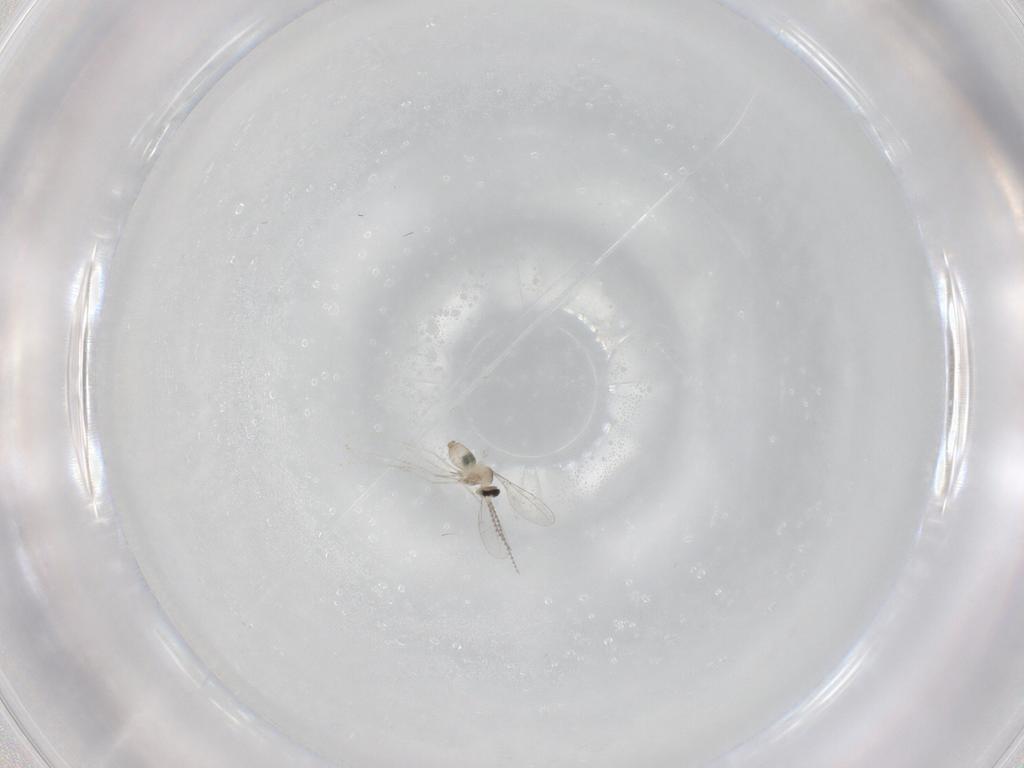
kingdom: Animalia
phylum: Arthropoda
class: Insecta
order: Diptera
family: Cecidomyiidae
